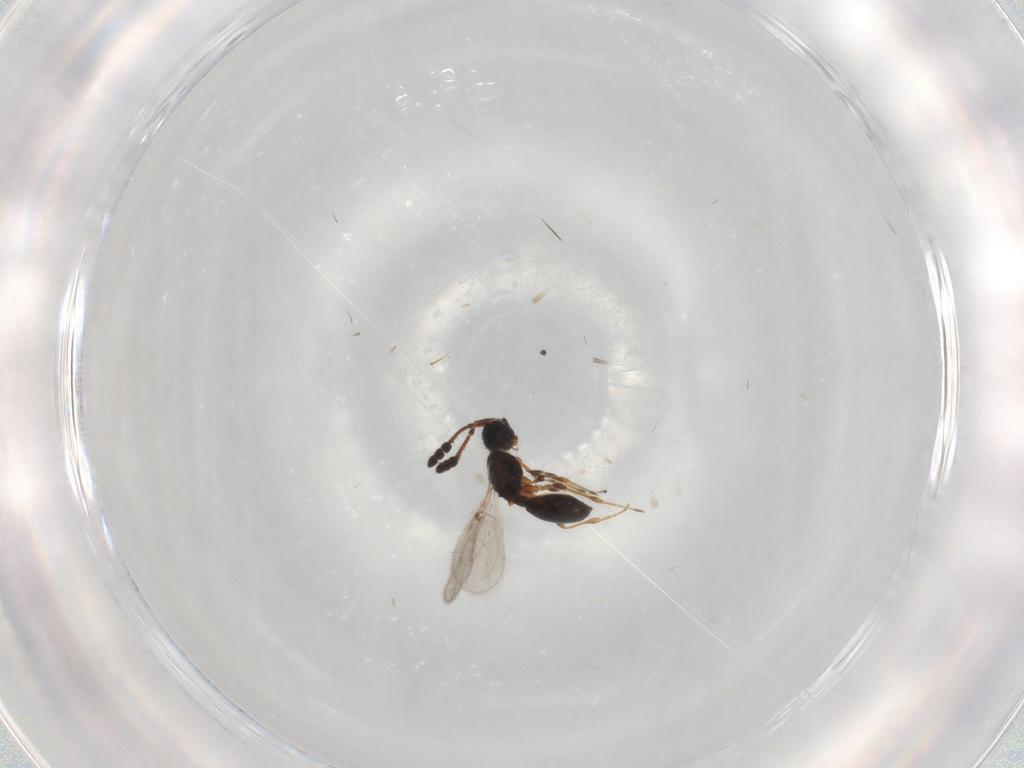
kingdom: Animalia
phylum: Arthropoda
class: Insecta
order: Hymenoptera
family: Diapriidae
